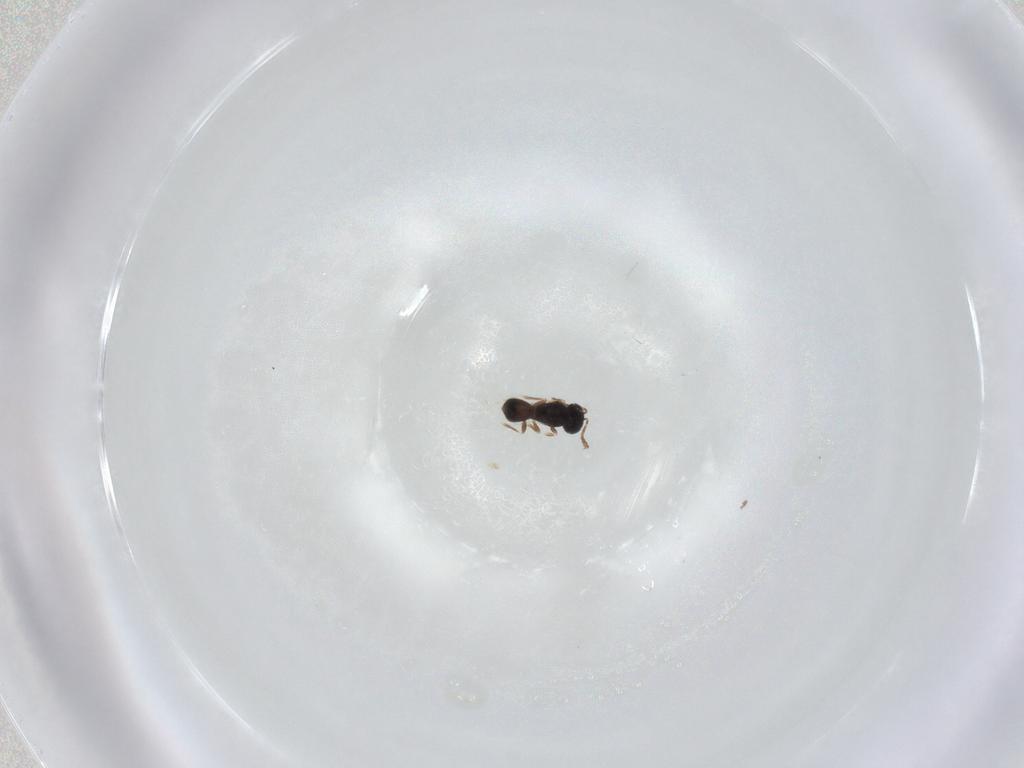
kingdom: Animalia
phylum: Arthropoda
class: Insecta
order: Hymenoptera
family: Scelionidae
